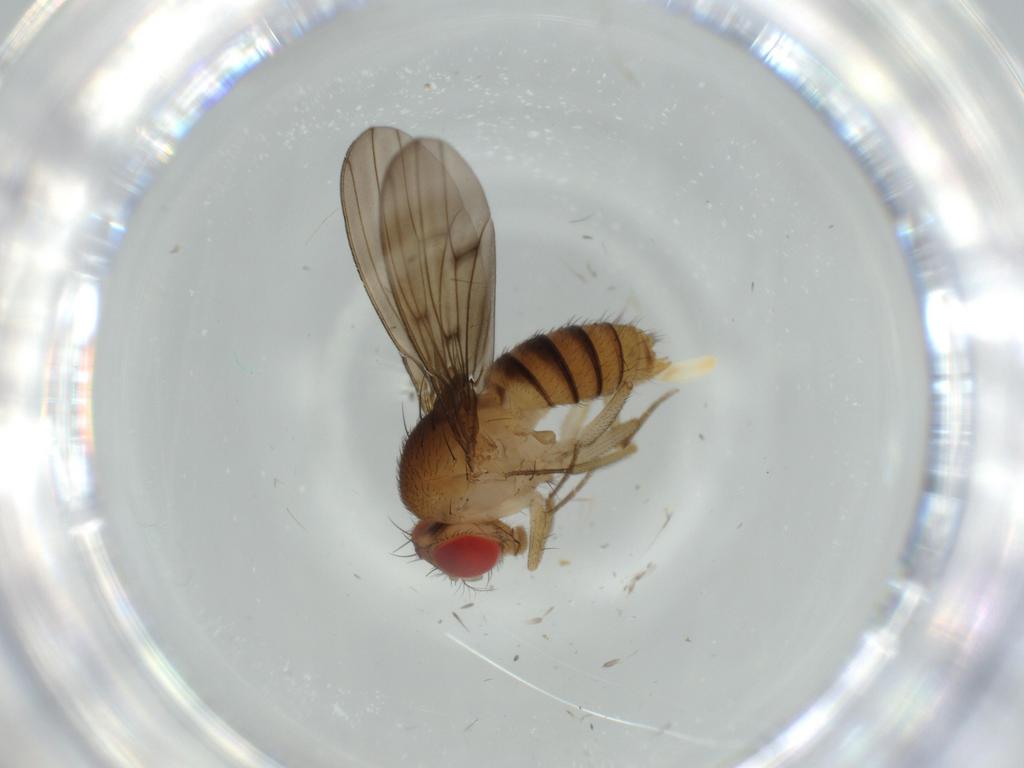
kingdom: Animalia
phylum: Arthropoda
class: Insecta
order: Diptera
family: Drosophilidae
